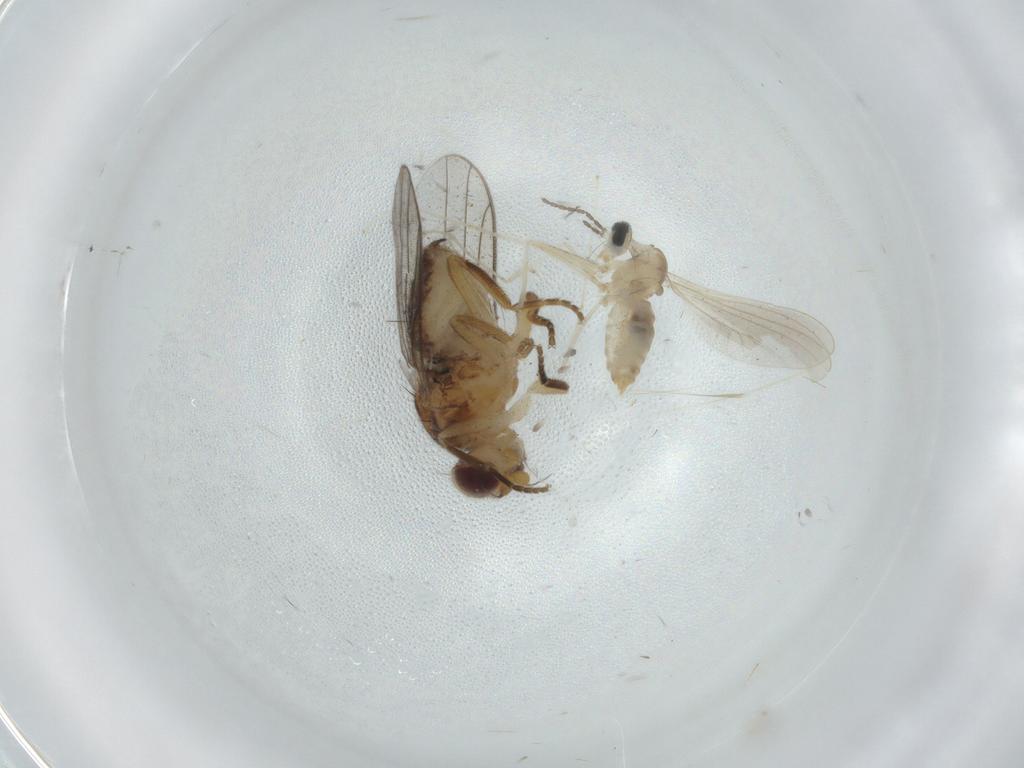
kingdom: Animalia
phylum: Arthropoda
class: Insecta
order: Diptera
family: Chloropidae
